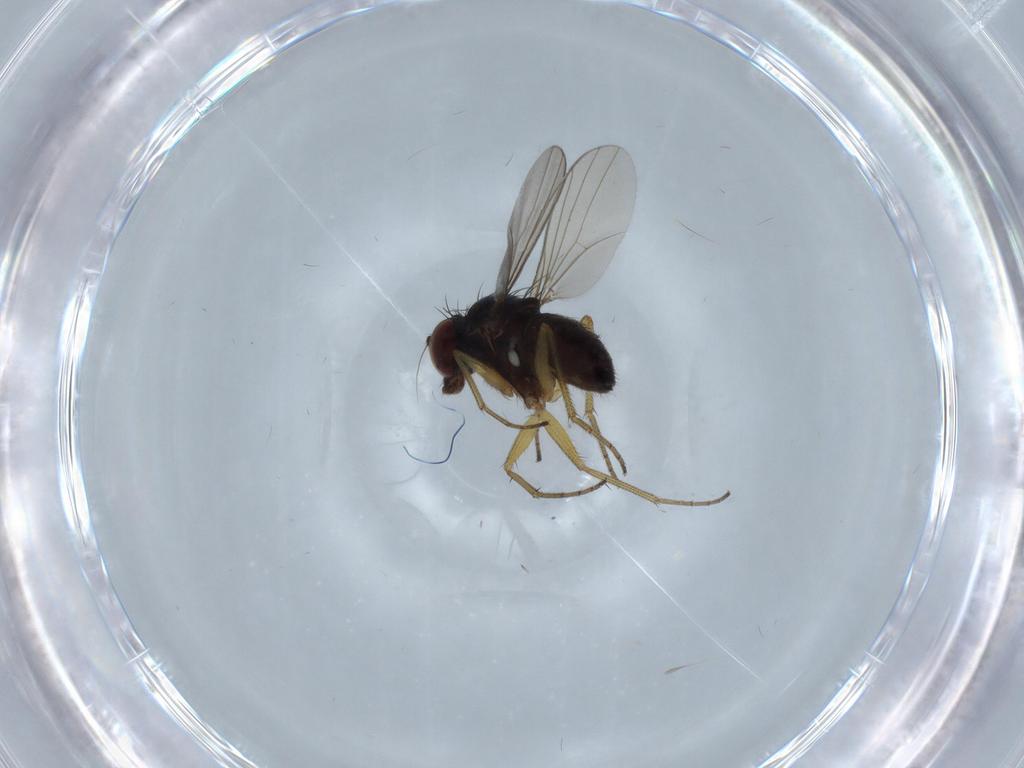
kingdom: Animalia
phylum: Arthropoda
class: Insecta
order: Diptera
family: Dolichopodidae
